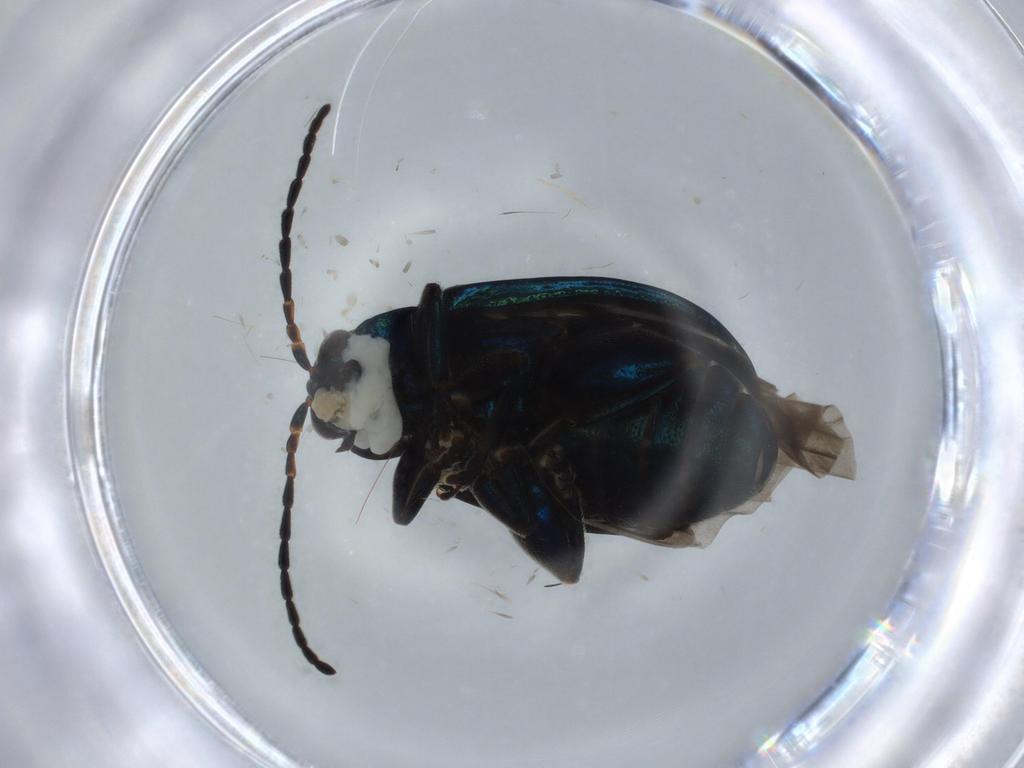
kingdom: Animalia
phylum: Arthropoda
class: Insecta
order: Coleoptera
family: Chrysomelidae
